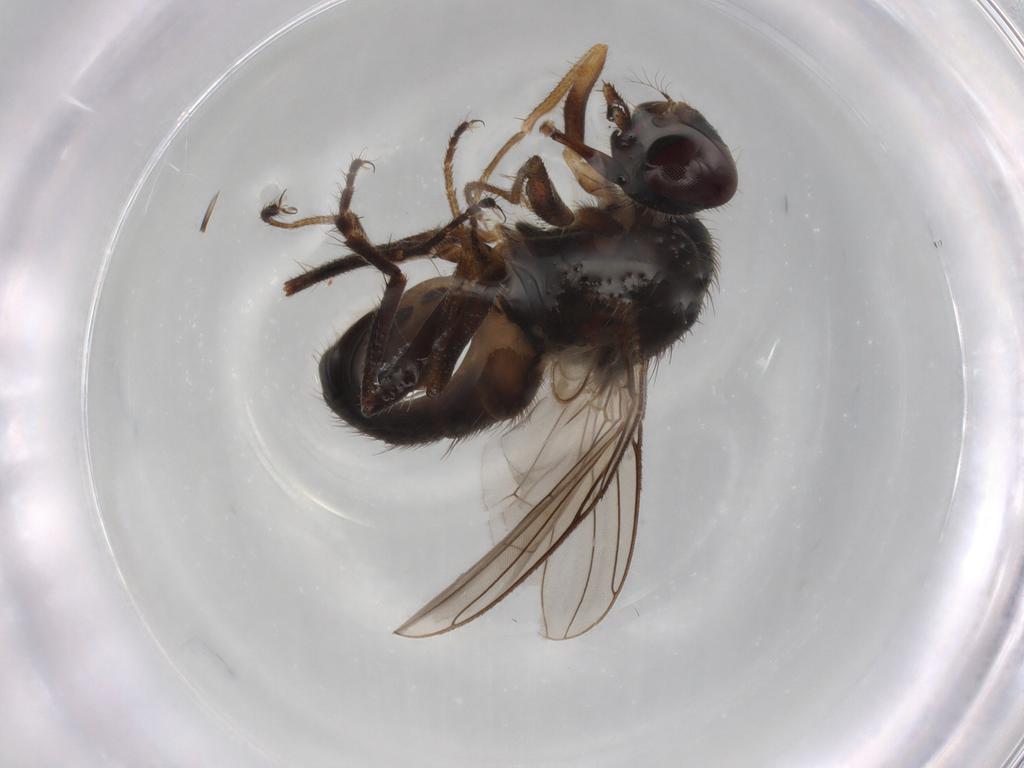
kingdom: Animalia
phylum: Arthropoda
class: Insecta
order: Diptera
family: Muscidae
